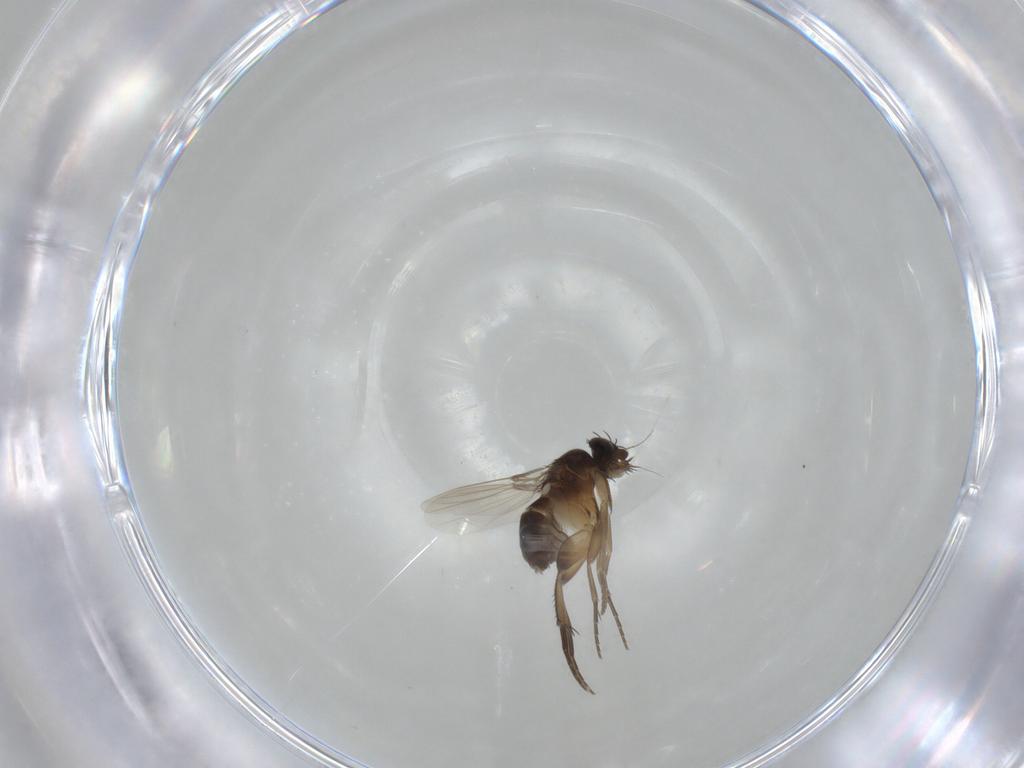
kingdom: Animalia
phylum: Arthropoda
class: Insecta
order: Diptera
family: Phoridae
